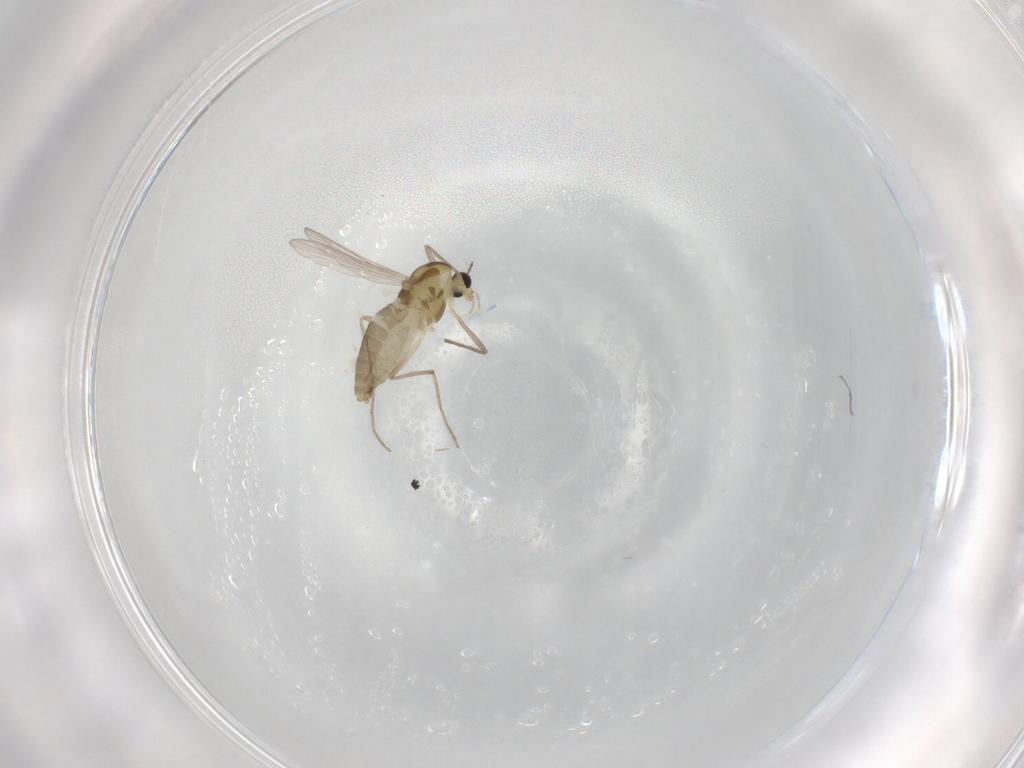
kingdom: Animalia
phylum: Arthropoda
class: Insecta
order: Diptera
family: Chironomidae
